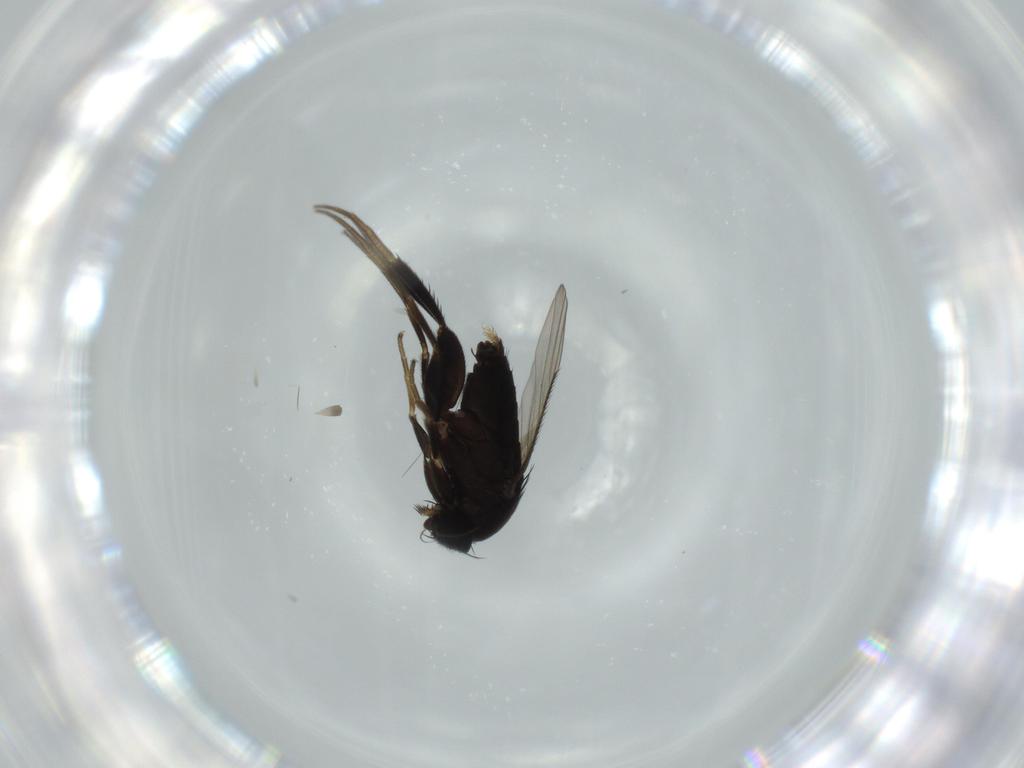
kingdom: Animalia
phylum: Arthropoda
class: Insecta
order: Diptera
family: Phoridae
